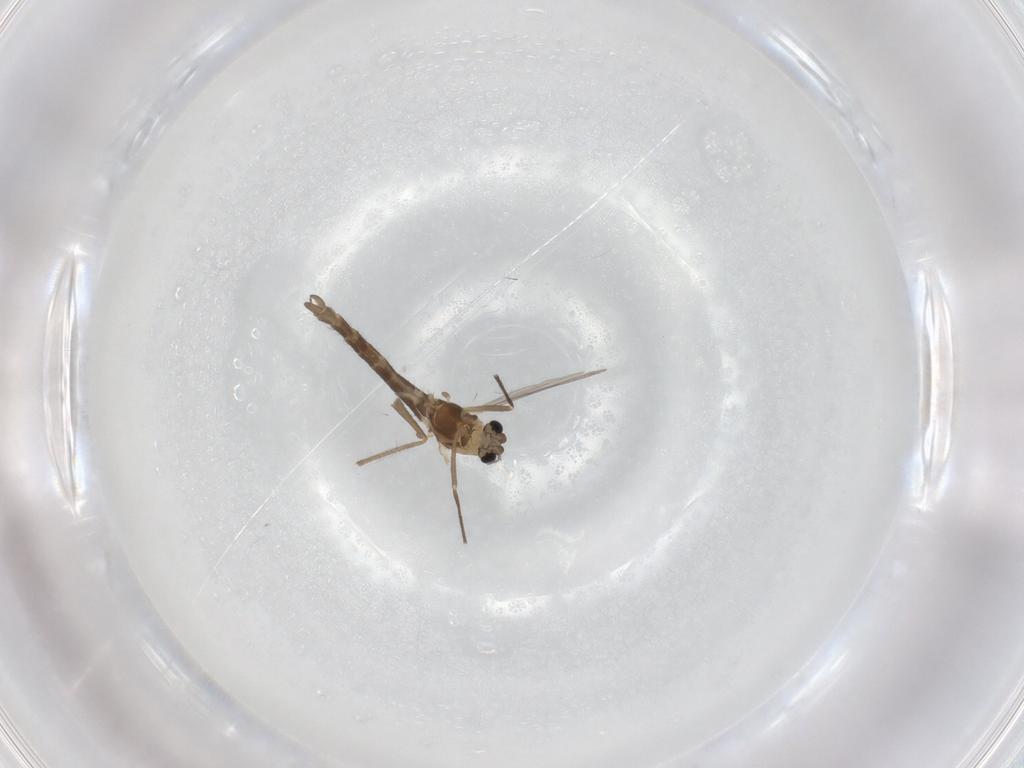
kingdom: Animalia
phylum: Arthropoda
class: Insecta
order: Diptera
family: Chironomidae
